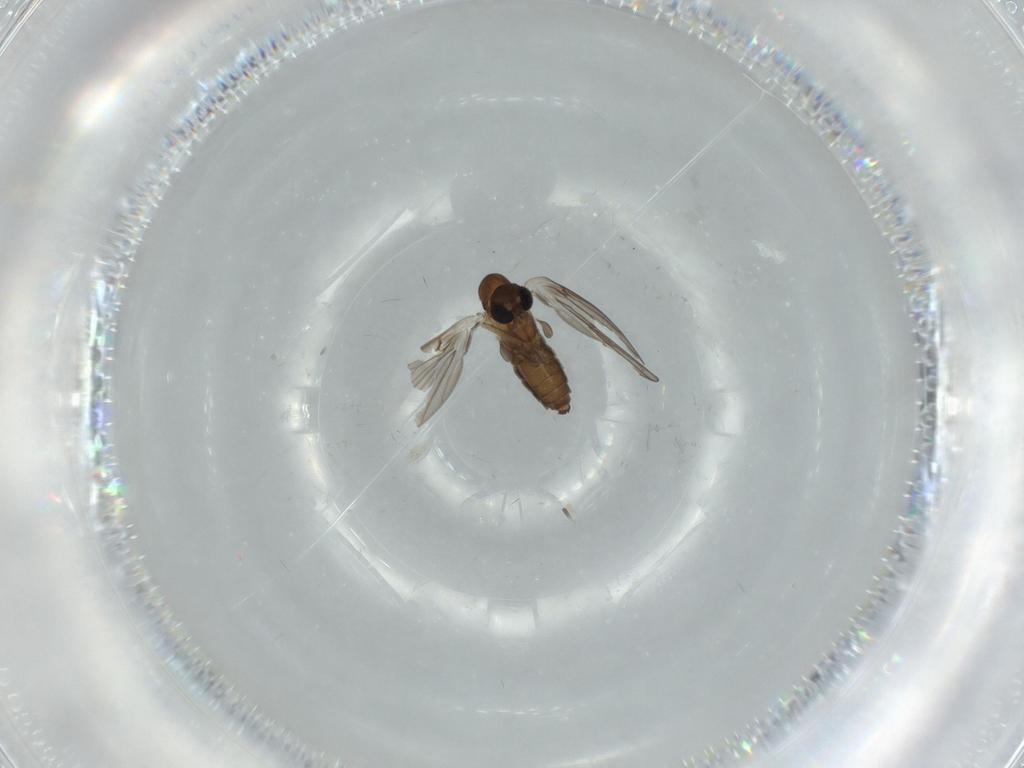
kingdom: Animalia
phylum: Arthropoda
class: Insecta
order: Diptera
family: Psychodidae
